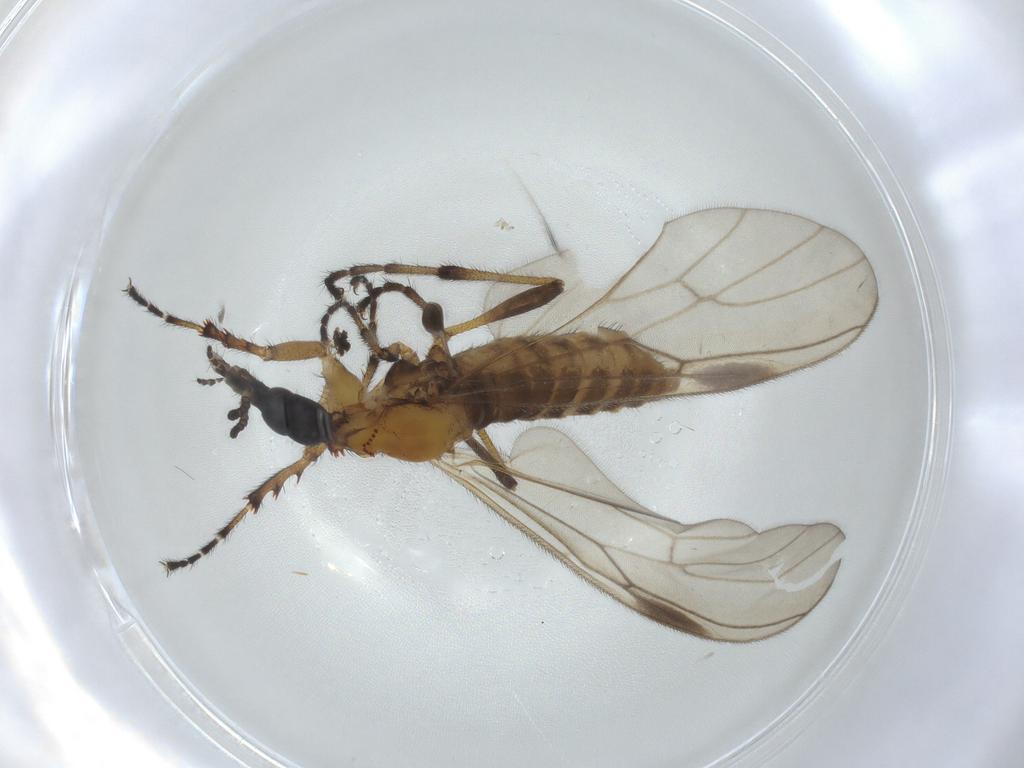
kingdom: Animalia
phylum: Arthropoda
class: Insecta
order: Diptera
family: Bibionidae
